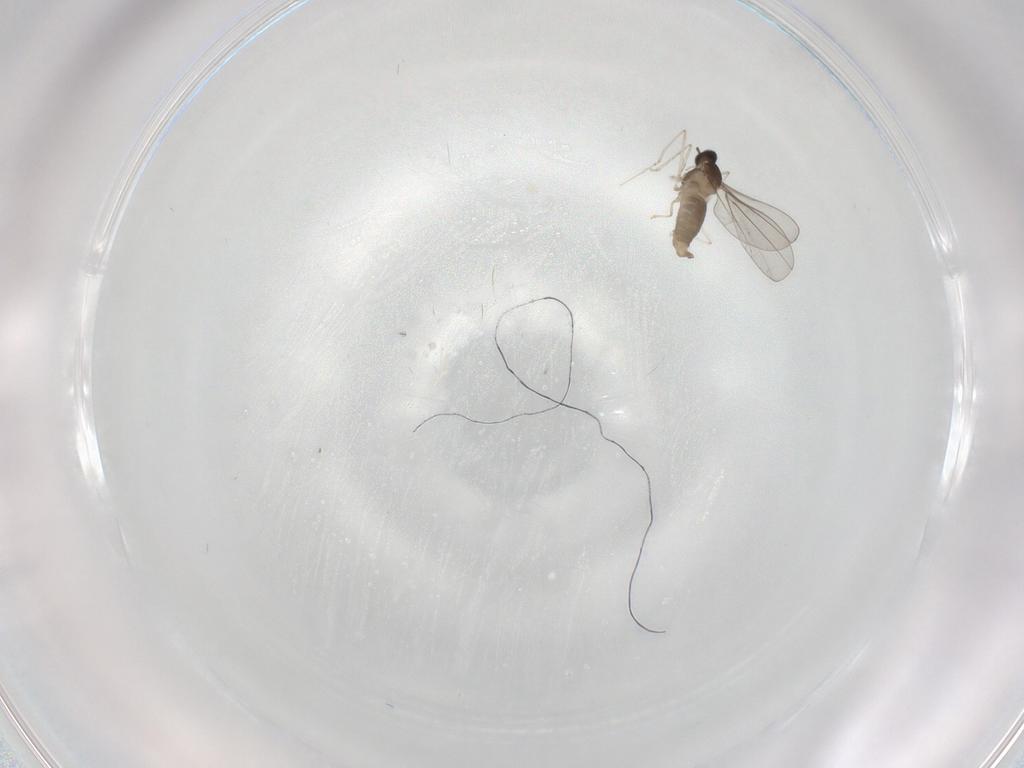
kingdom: Animalia
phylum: Arthropoda
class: Insecta
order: Diptera
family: Cecidomyiidae
